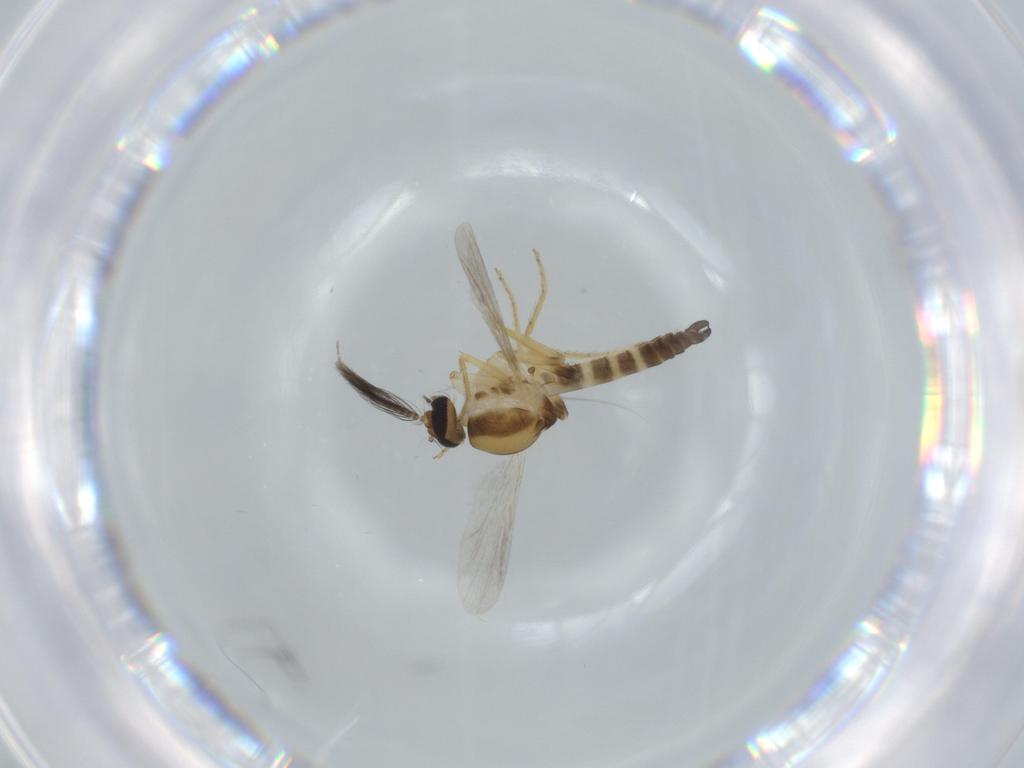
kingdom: Animalia
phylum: Arthropoda
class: Insecta
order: Diptera
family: Ceratopogonidae
